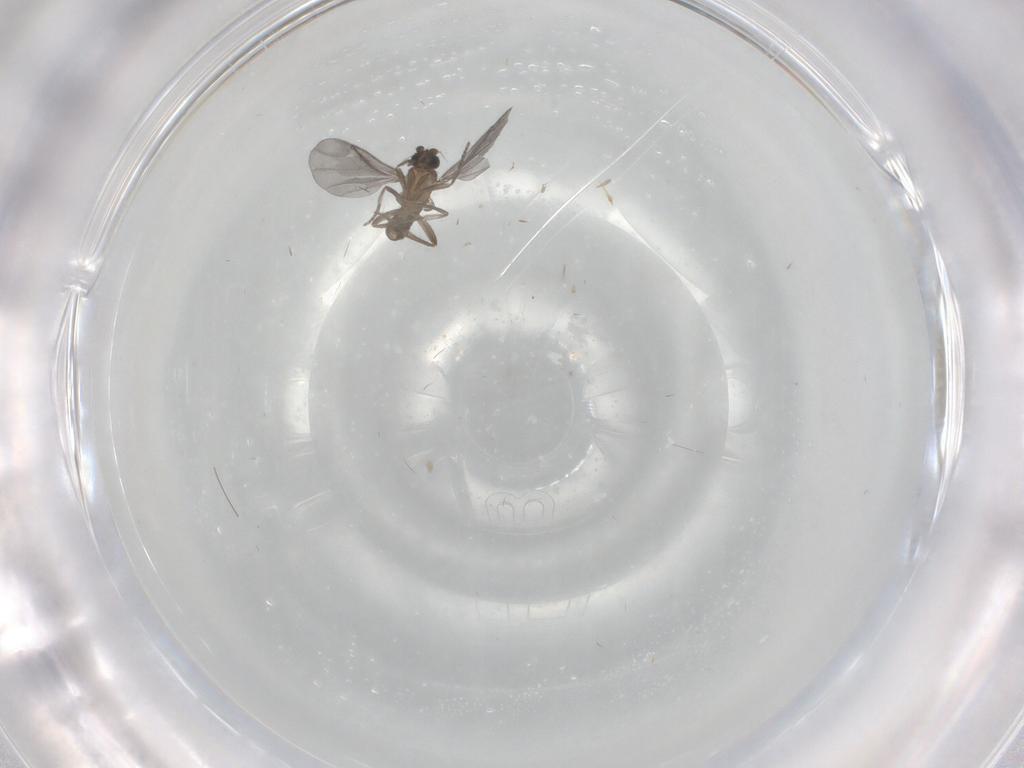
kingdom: Animalia
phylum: Arthropoda
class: Insecta
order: Diptera
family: Phoridae
